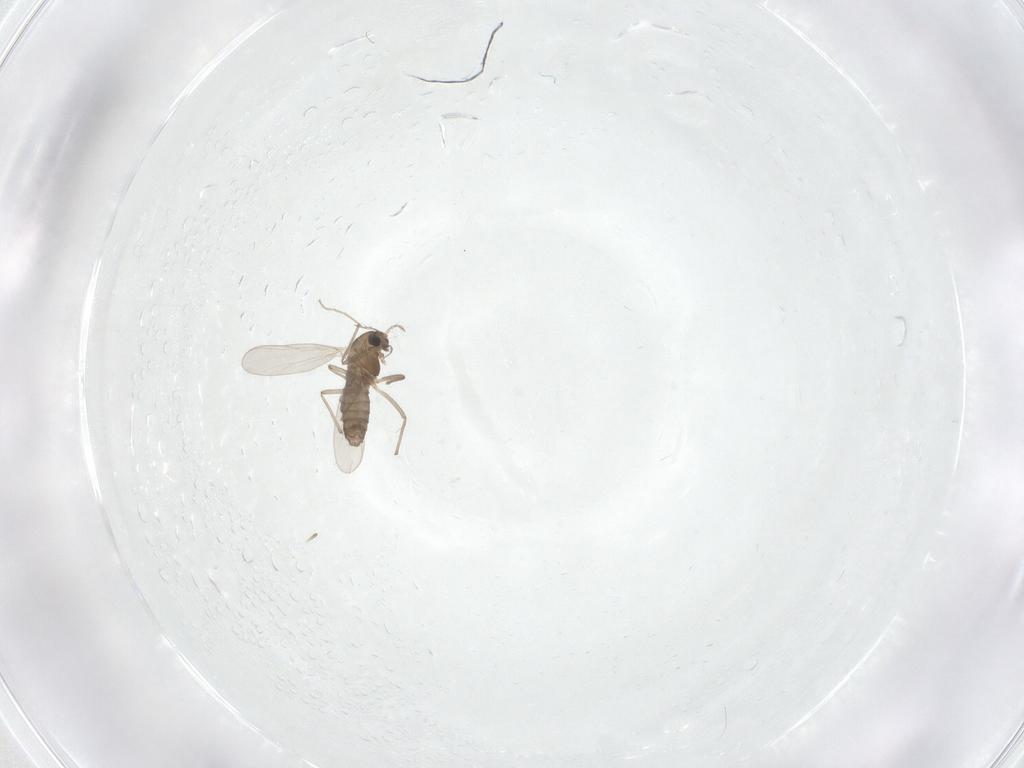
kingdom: Animalia
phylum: Arthropoda
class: Insecta
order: Diptera
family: Chironomidae
